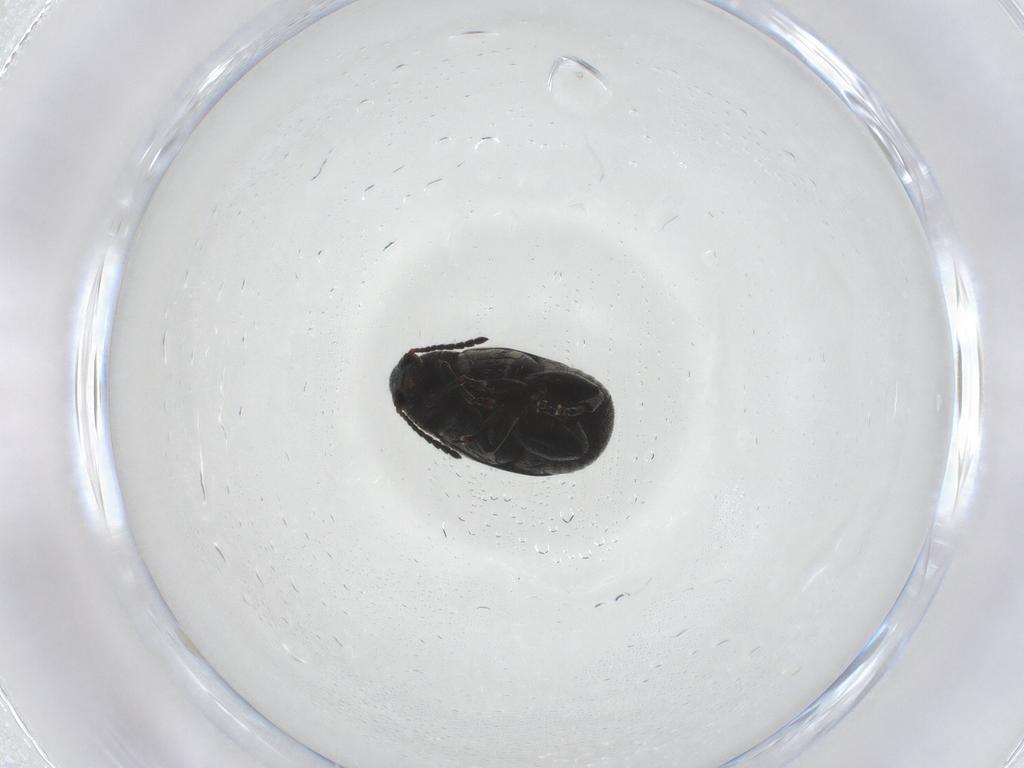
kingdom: Animalia
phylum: Arthropoda
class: Insecta
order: Coleoptera
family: Chrysomelidae
